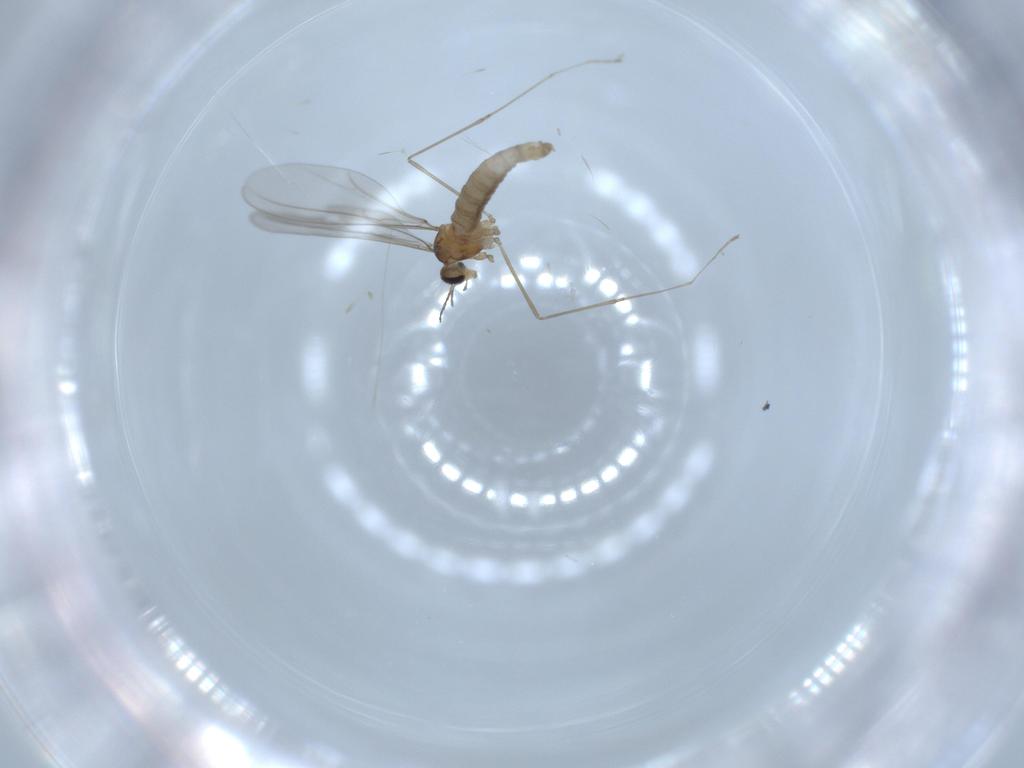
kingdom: Animalia
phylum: Arthropoda
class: Insecta
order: Diptera
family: Cecidomyiidae
